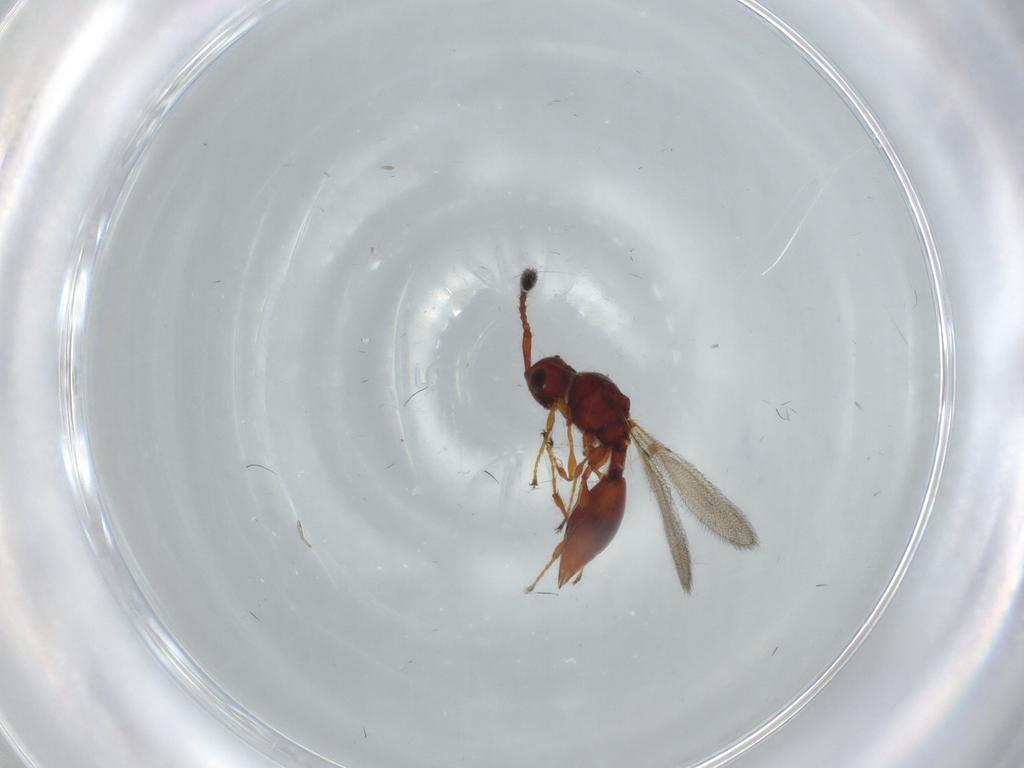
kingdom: Animalia
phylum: Arthropoda
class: Insecta
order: Hymenoptera
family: Diapriidae
